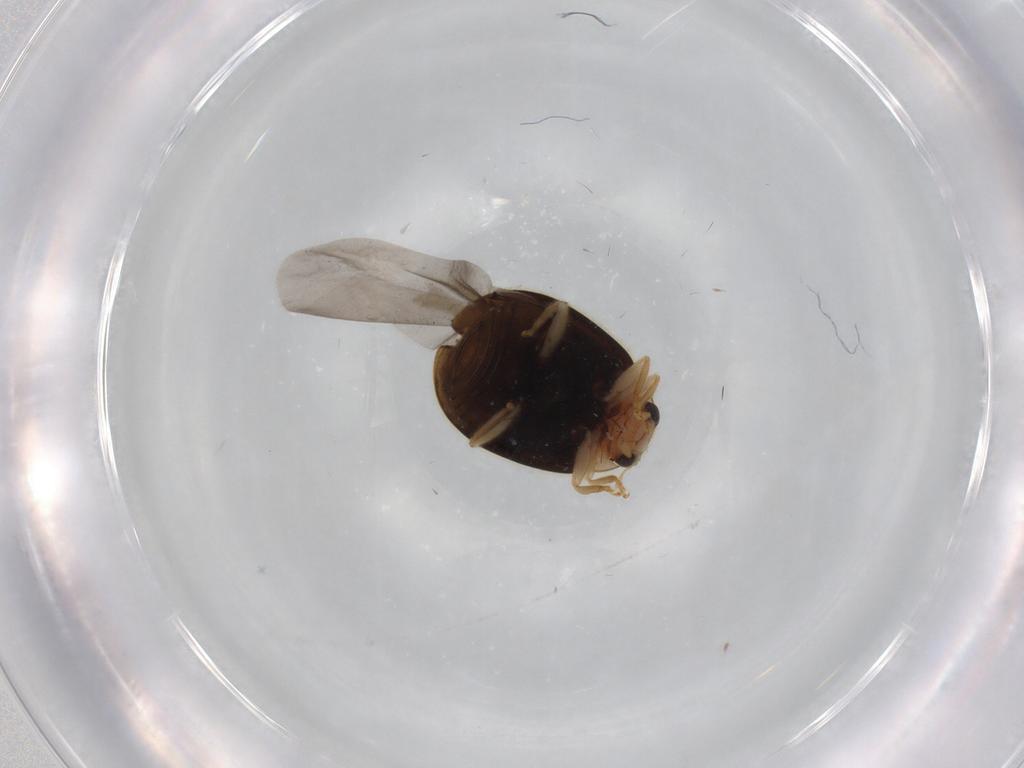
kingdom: Animalia
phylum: Arthropoda
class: Insecta
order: Coleoptera
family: Coccinellidae
